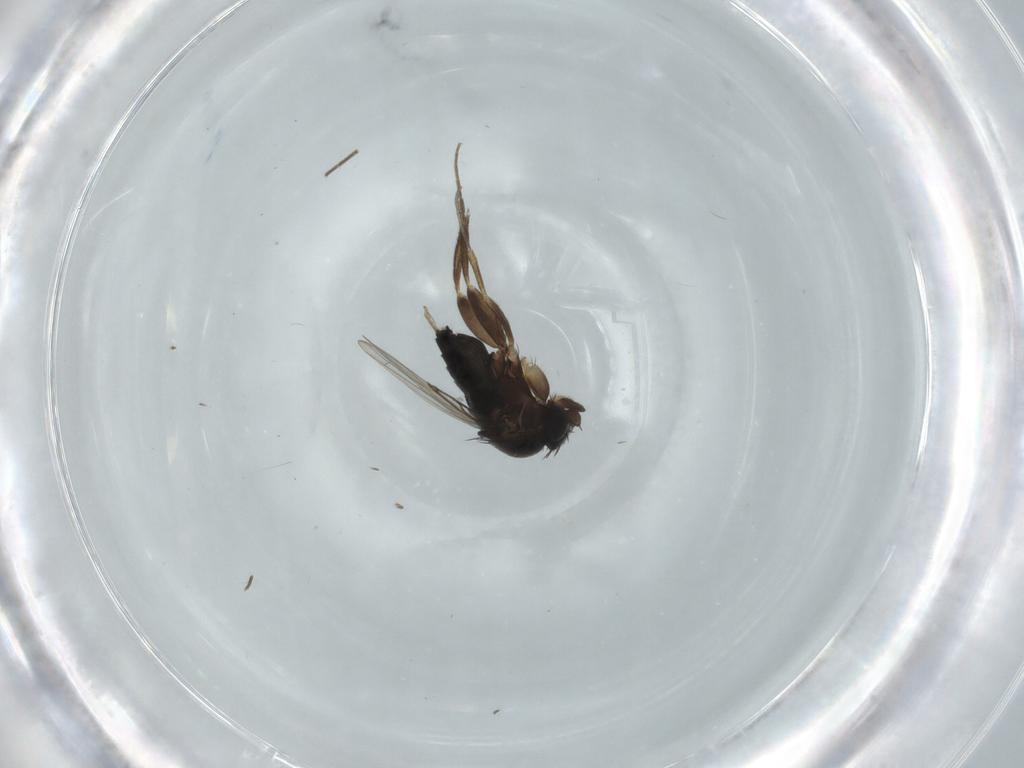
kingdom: Animalia
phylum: Arthropoda
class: Insecta
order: Diptera
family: Phoridae
